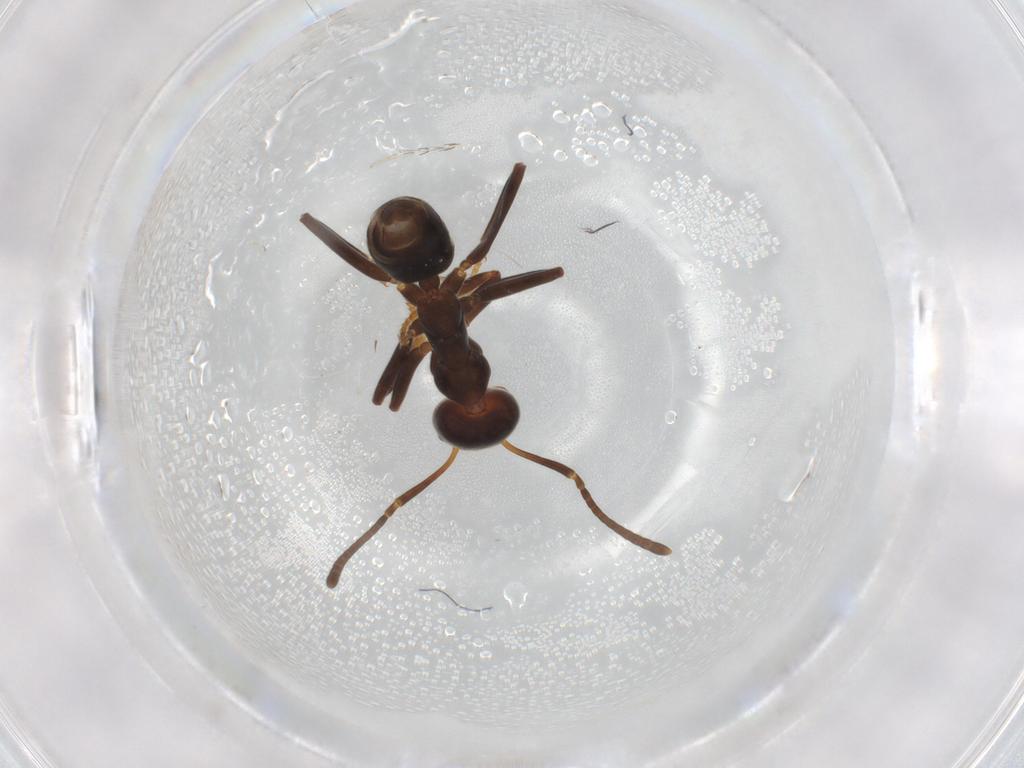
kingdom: Animalia
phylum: Arthropoda
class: Insecta
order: Hymenoptera
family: Formicidae
